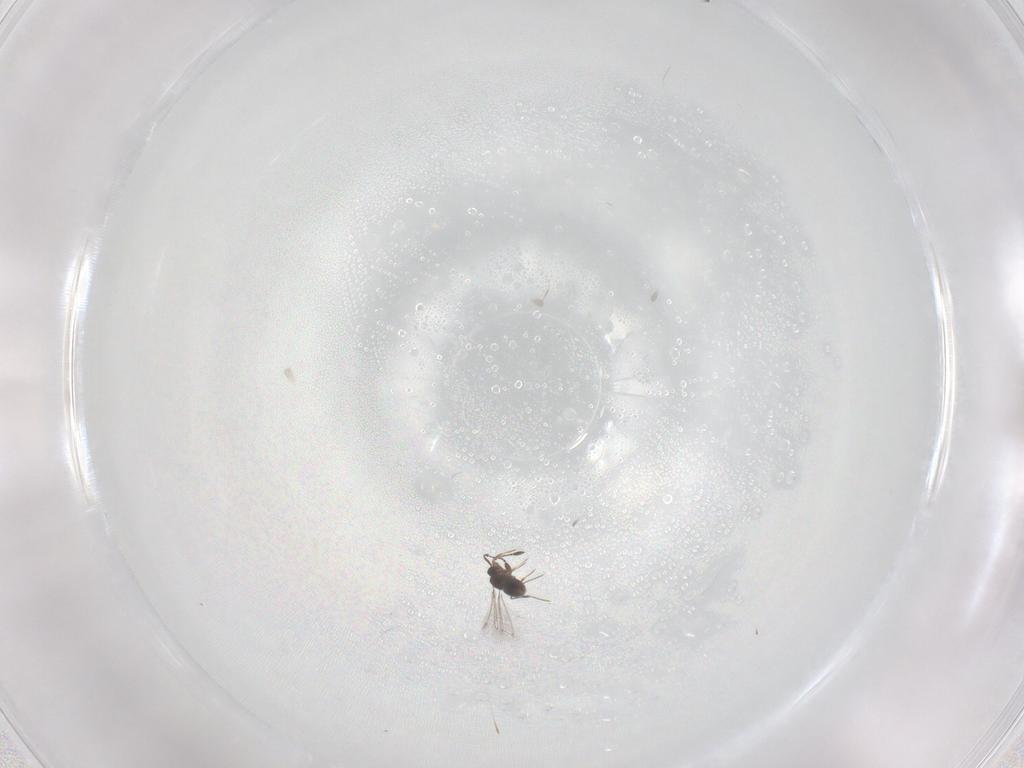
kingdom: Animalia
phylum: Arthropoda
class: Insecta
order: Hymenoptera
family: Mymaridae
